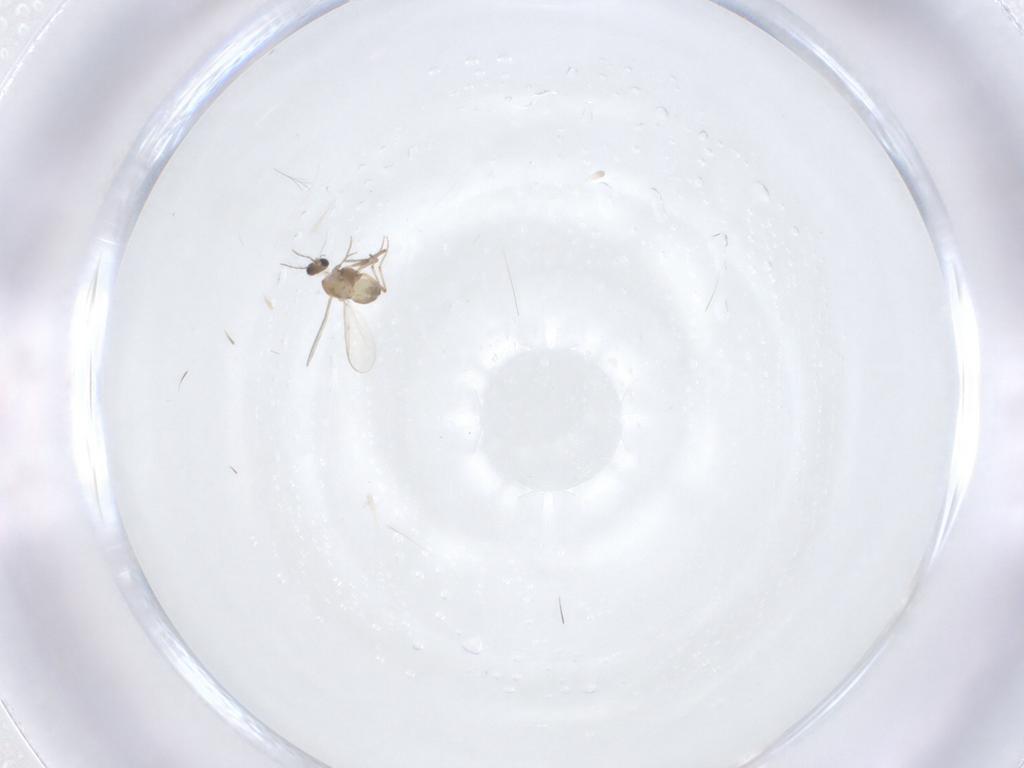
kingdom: Animalia
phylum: Arthropoda
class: Insecta
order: Diptera
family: Chironomidae
